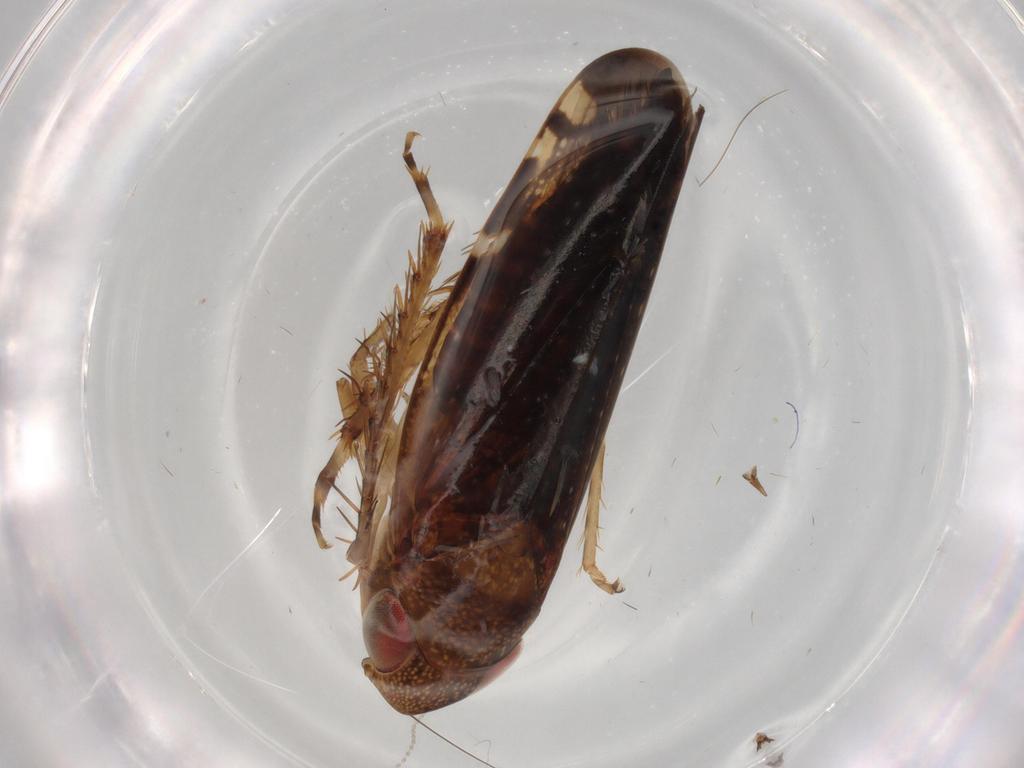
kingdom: Animalia
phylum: Arthropoda
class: Insecta
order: Hemiptera
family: Cicadellidae
